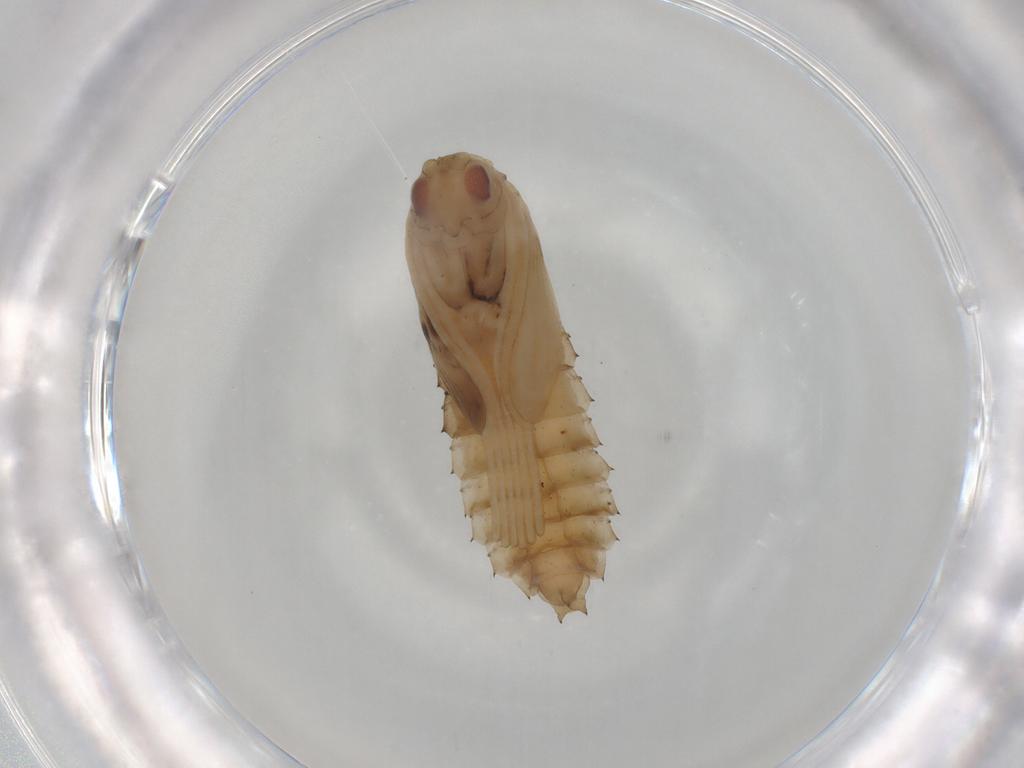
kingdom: Animalia
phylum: Arthropoda
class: Insecta
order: Diptera
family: Cecidomyiidae
